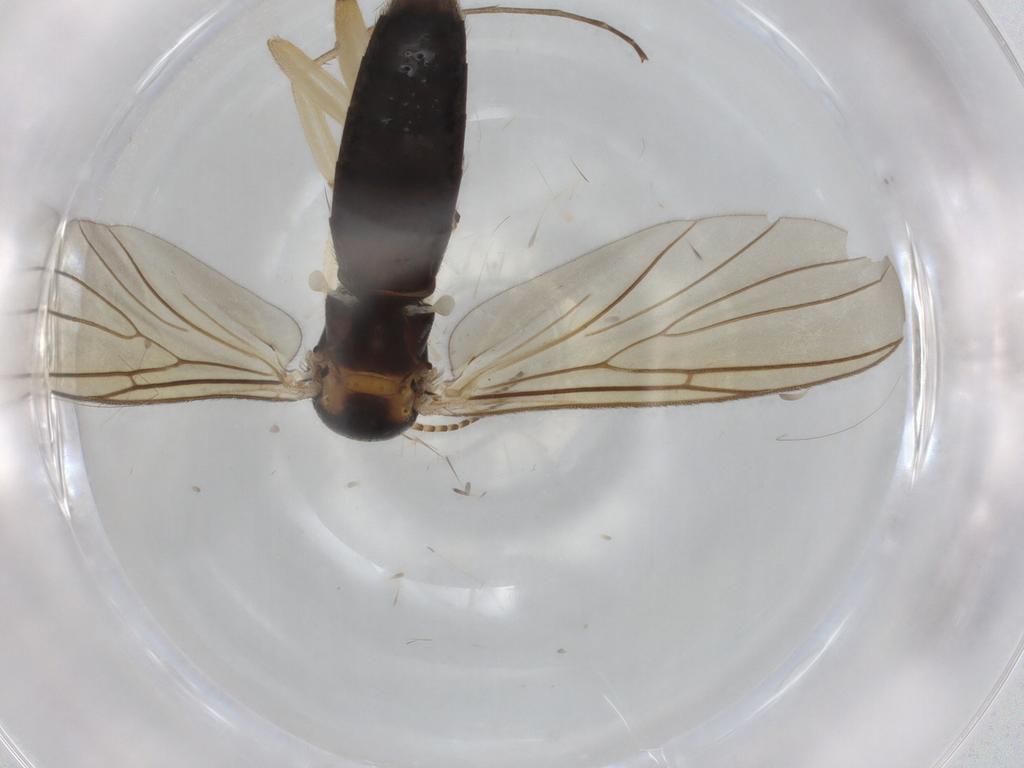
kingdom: Animalia
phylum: Arthropoda
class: Insecta
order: Diptera
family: Mycetophilidae
